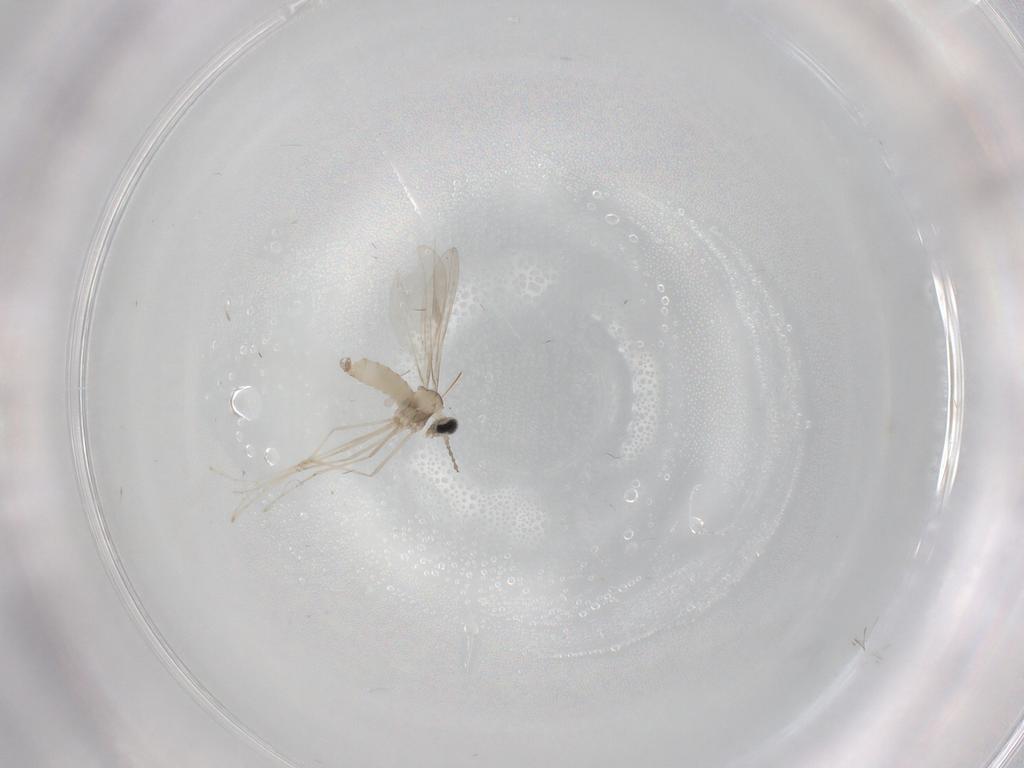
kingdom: Animalia
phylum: Arthropoda
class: Insecta
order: Diptera
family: Cecidomyiidae
